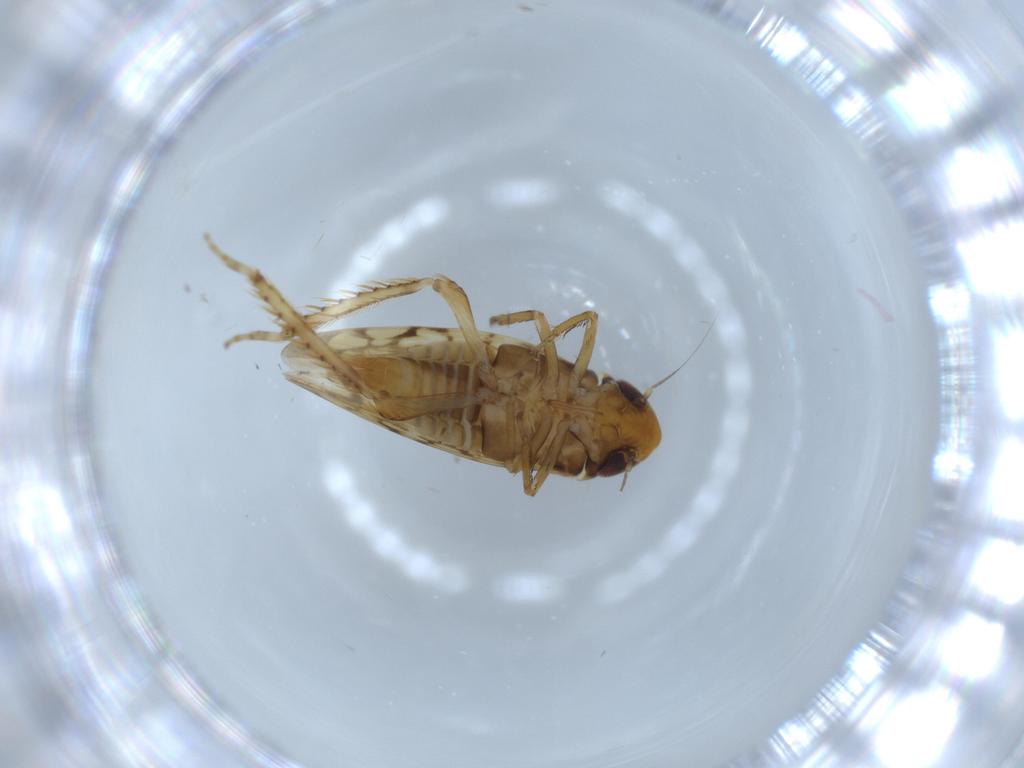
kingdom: Animalia
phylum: Arthropoda
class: Insecta
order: Hemiptera
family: Cicadellidae
